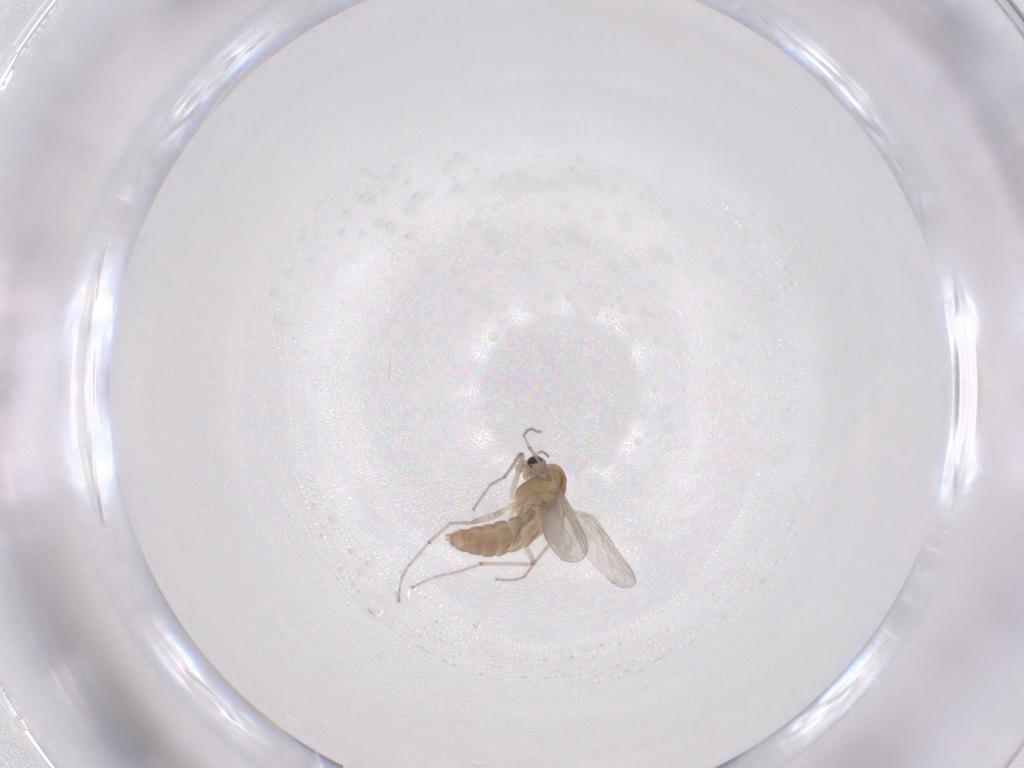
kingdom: Animalia
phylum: Arthropoda
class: Insecta
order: Diptera
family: Chironomidae
